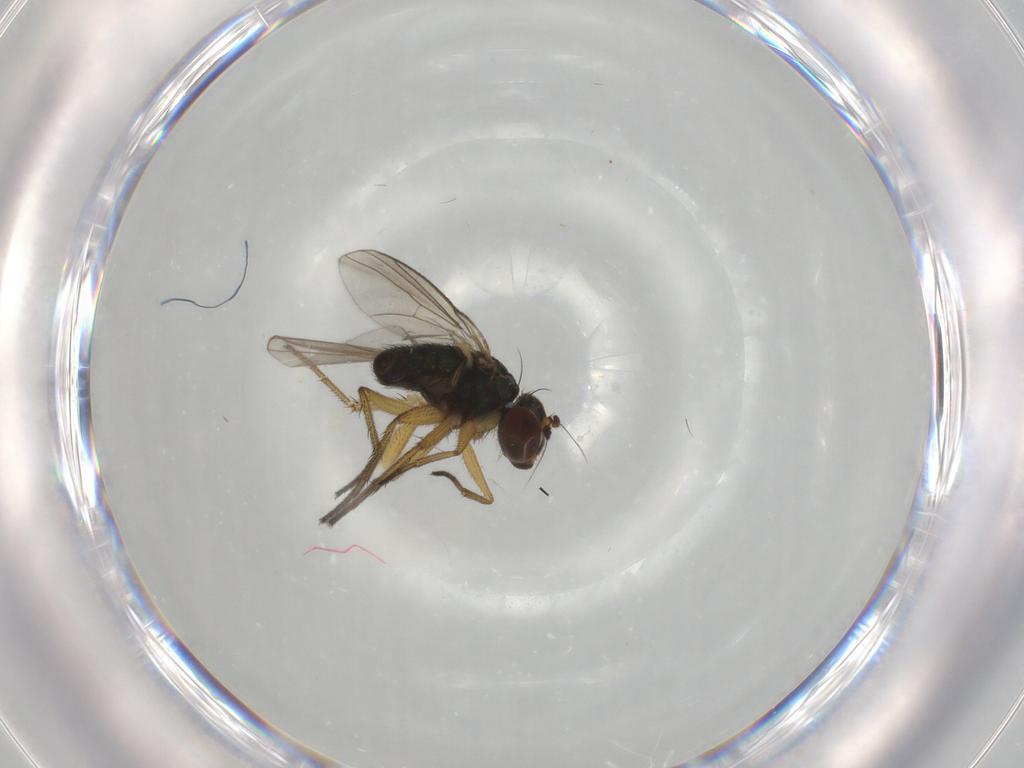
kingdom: Animalia
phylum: Arthropoda
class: Insecta
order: Diptera
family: Dolichopodidae
